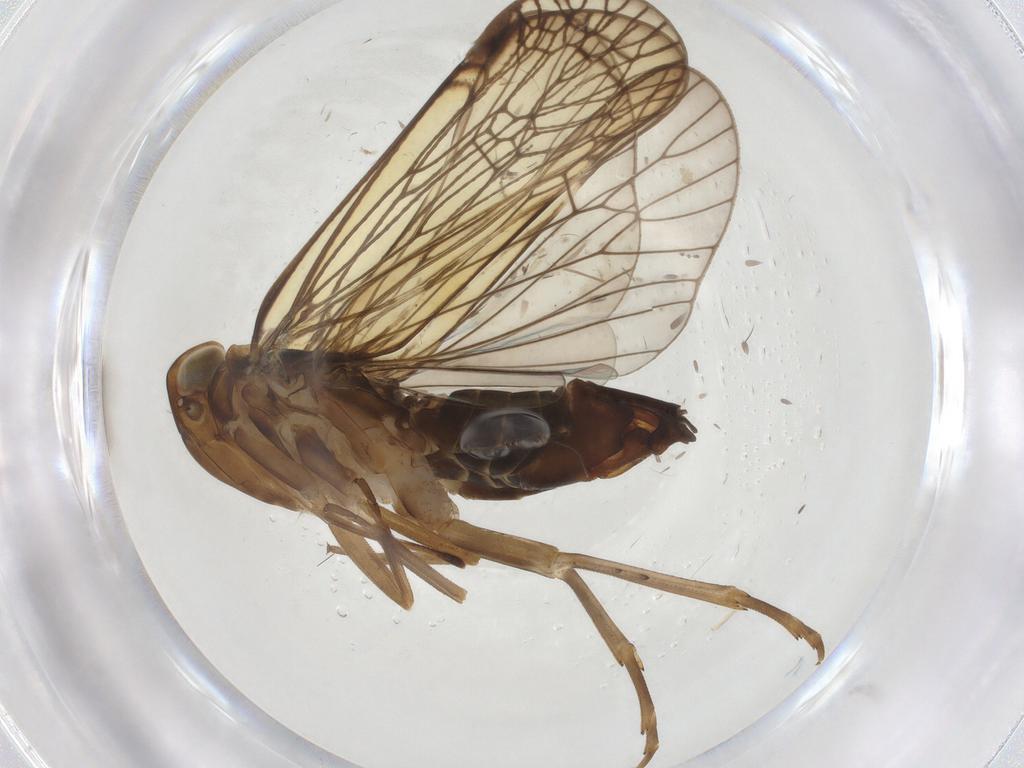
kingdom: Animalia
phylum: Arthropoda
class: Insecta
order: Hemiptera
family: Cixiidae
